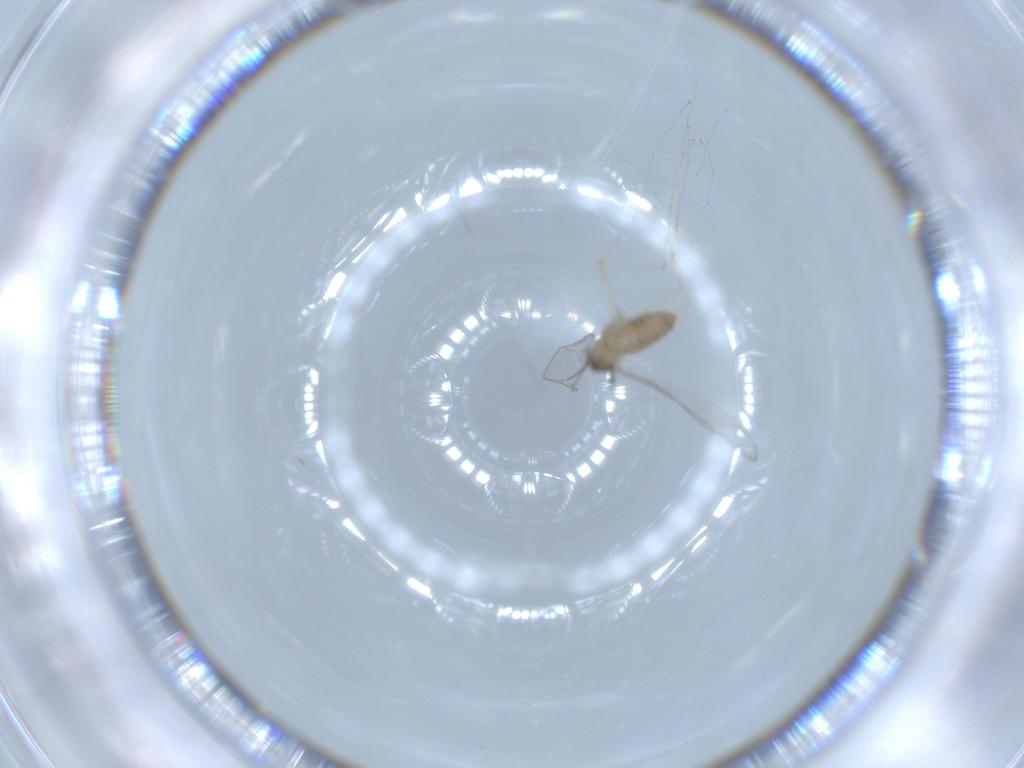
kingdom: Animalia
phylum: Arthropoda
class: Insecta
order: Diptera
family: Cecidomyiidae
